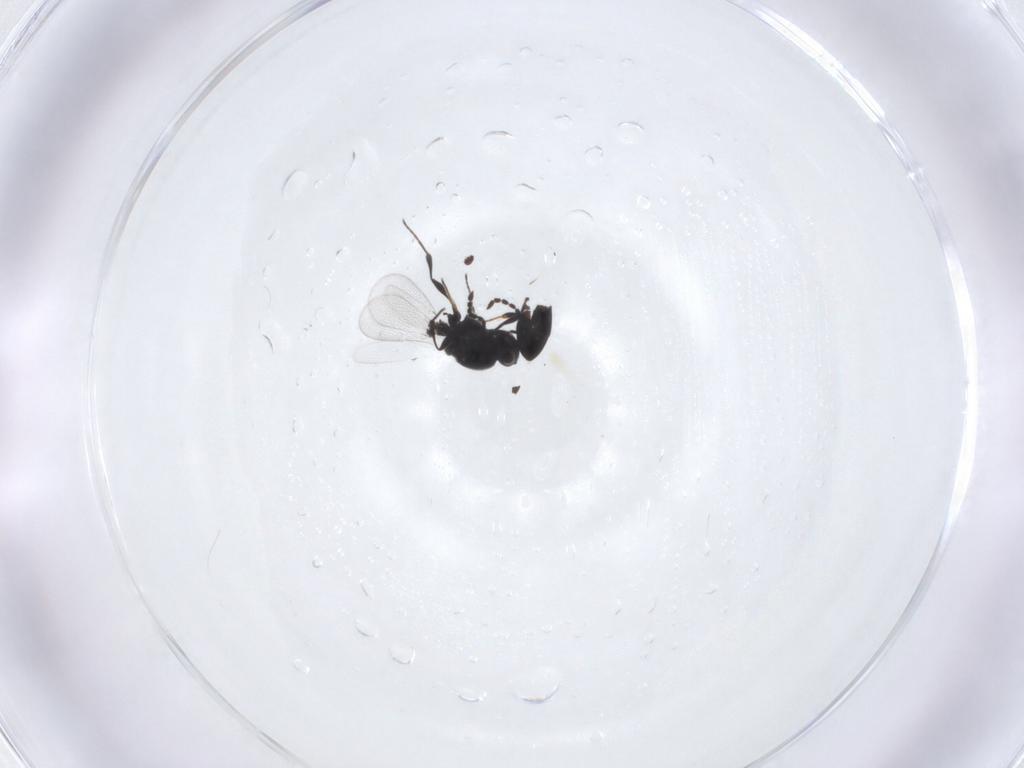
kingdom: Animalia
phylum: Arthropoda
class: Insecta
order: Diptera
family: Mythicomyiidae
